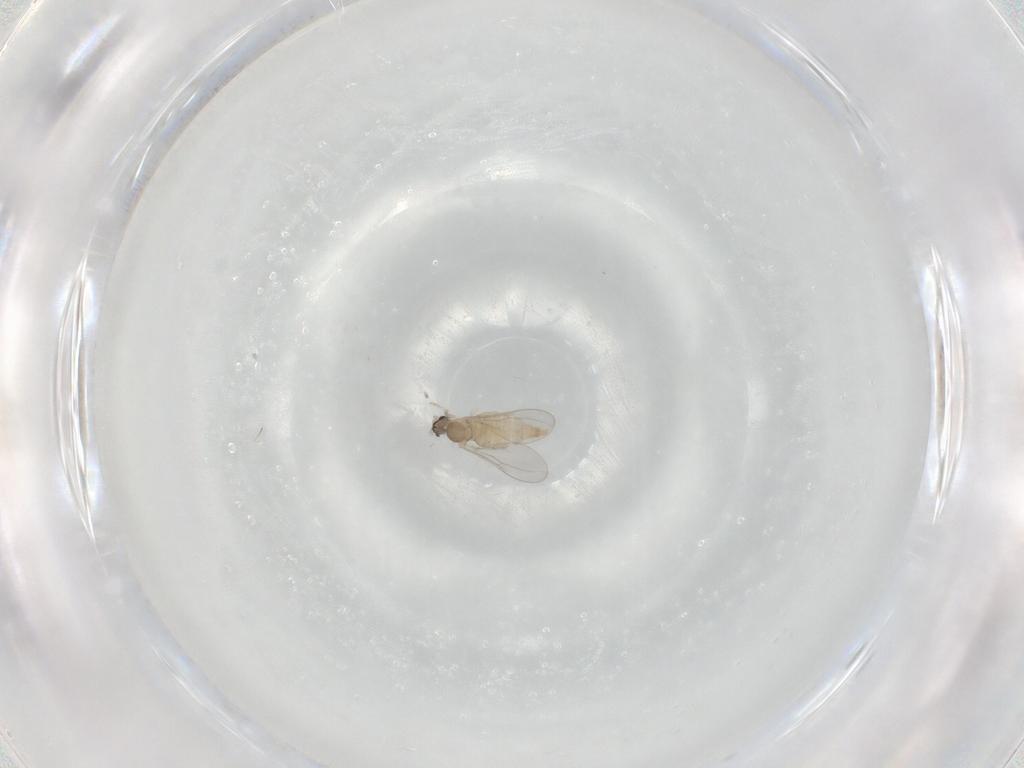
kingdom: Animalia
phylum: Arthropoda
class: Insecta
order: Diptera
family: Cecidomyiidae
